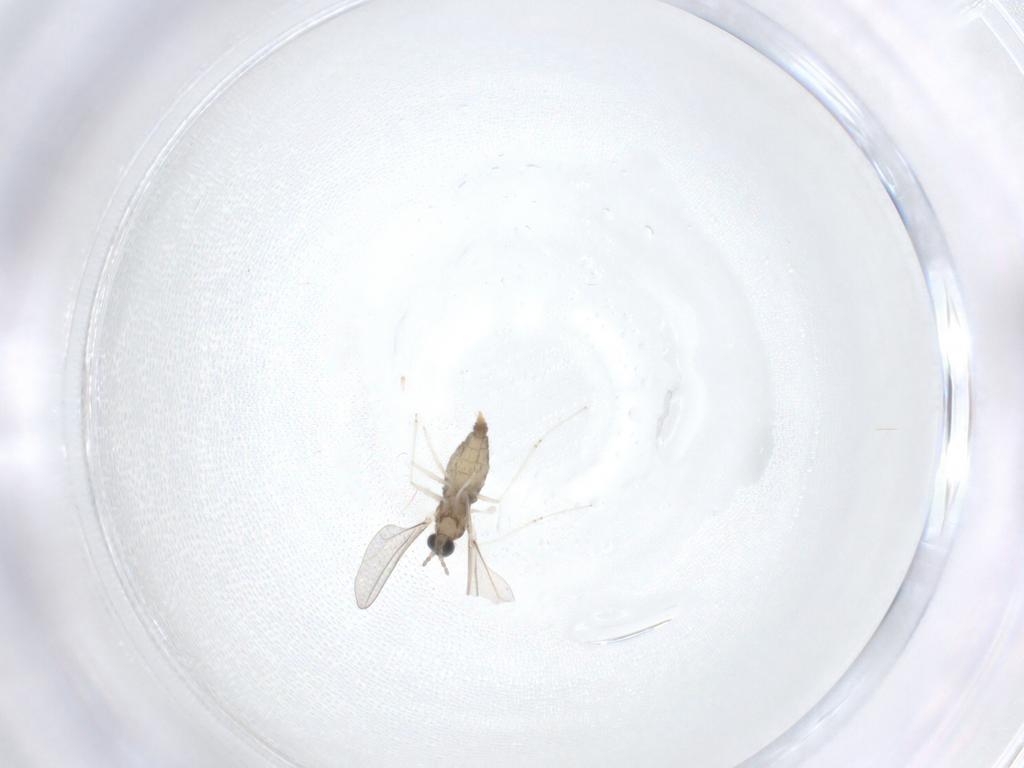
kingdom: Animalia
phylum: Arthropoda
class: Insecta
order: Diptera
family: Cecidomyiidae
